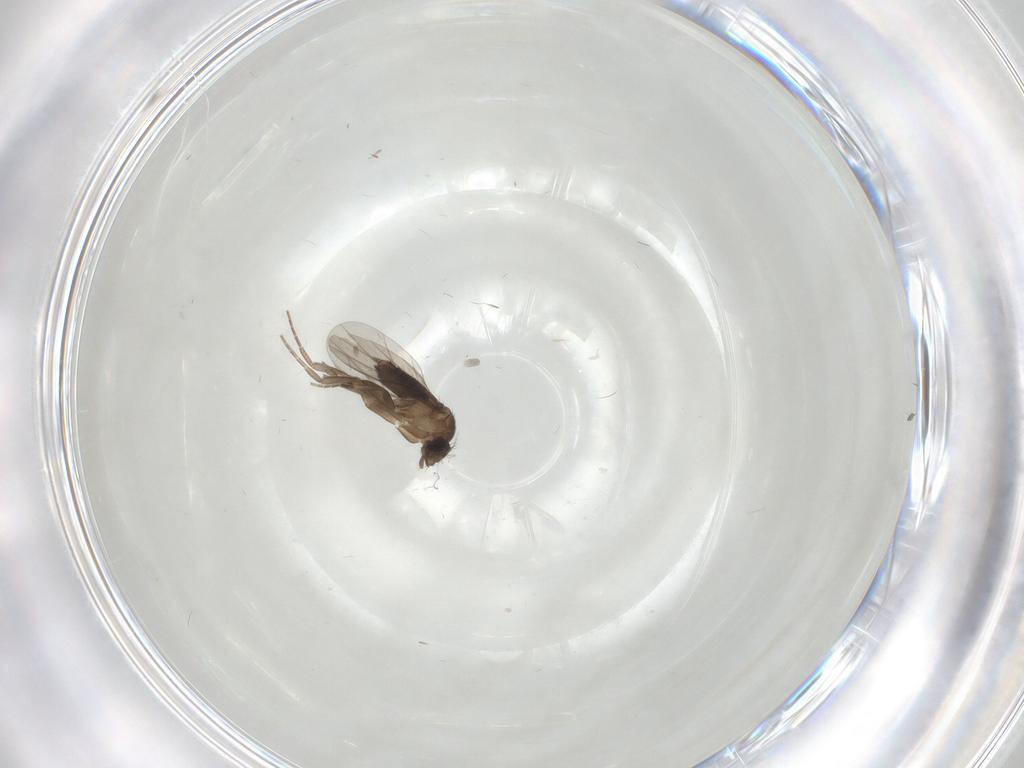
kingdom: Animalia
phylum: Arthropoda
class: Insecta
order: Diptera
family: Phoridae
